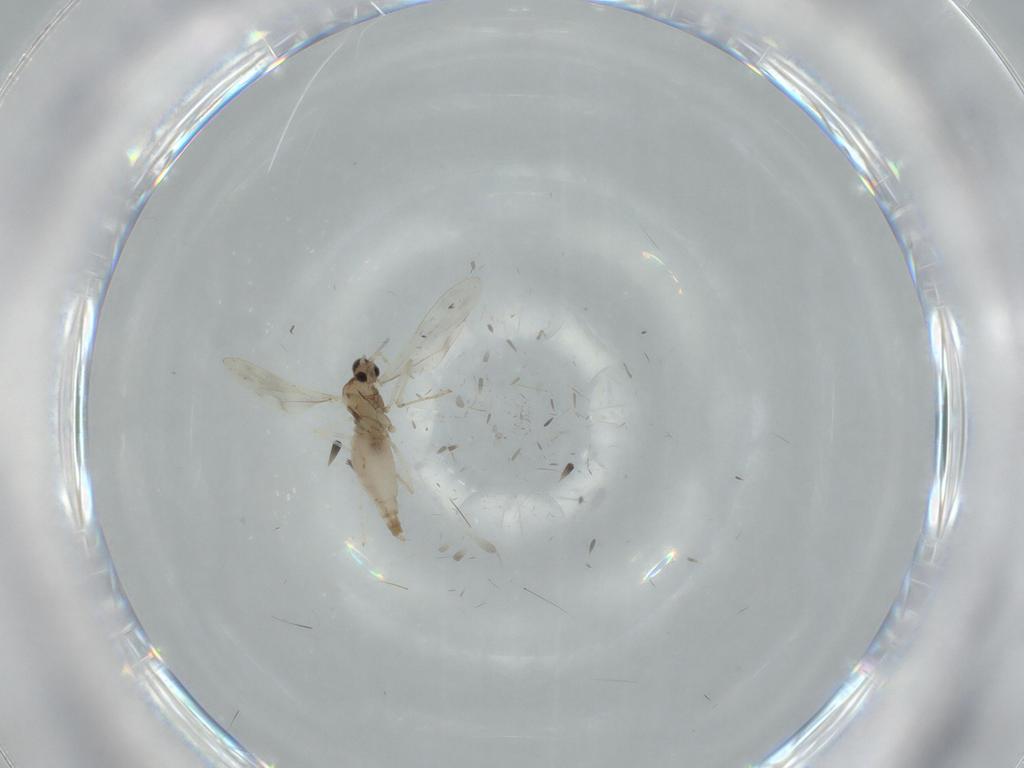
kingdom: Animalia
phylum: Arthropoda
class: Insecta
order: Diptera
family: Cecidomyiidae
